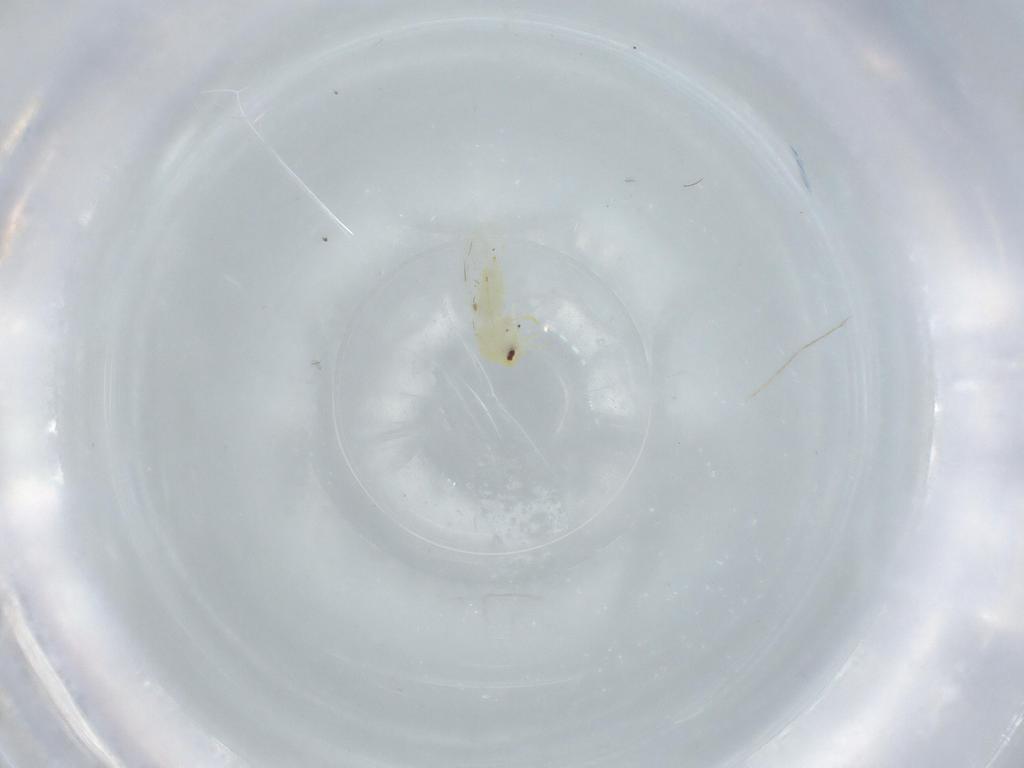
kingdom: Animalia
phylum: Arthropoda
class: Insecta
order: Hemiptera
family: Aleyrodidae
